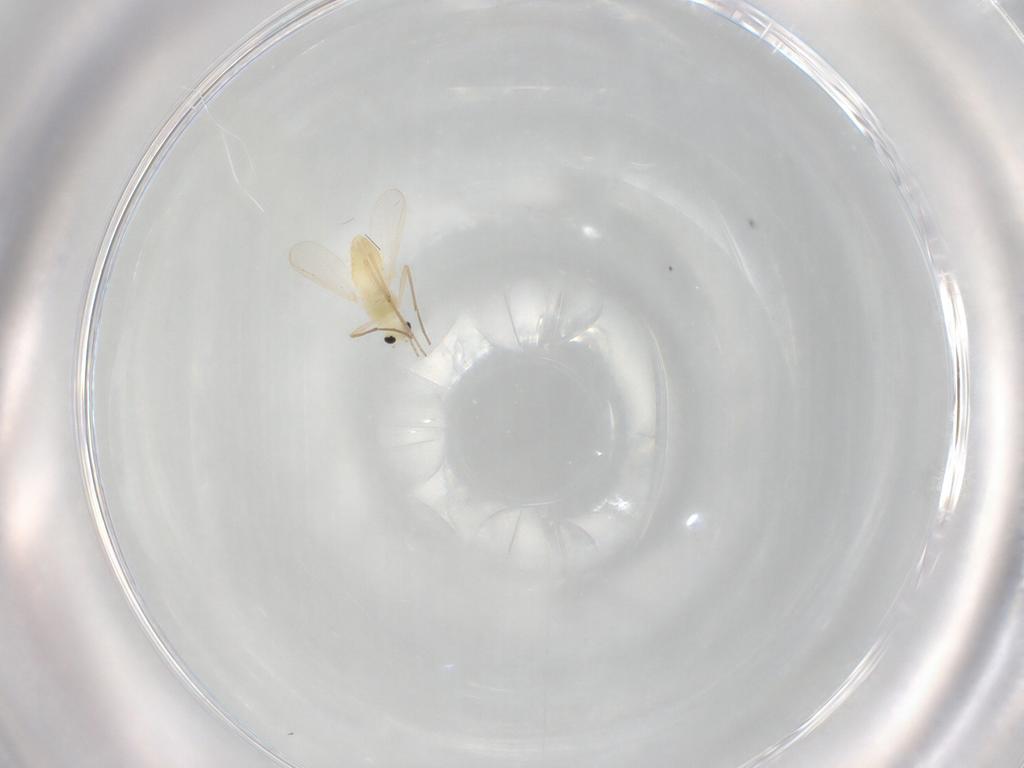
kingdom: Animalia
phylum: Arthropoda
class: Insecta
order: Diptera
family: Chironomidae
